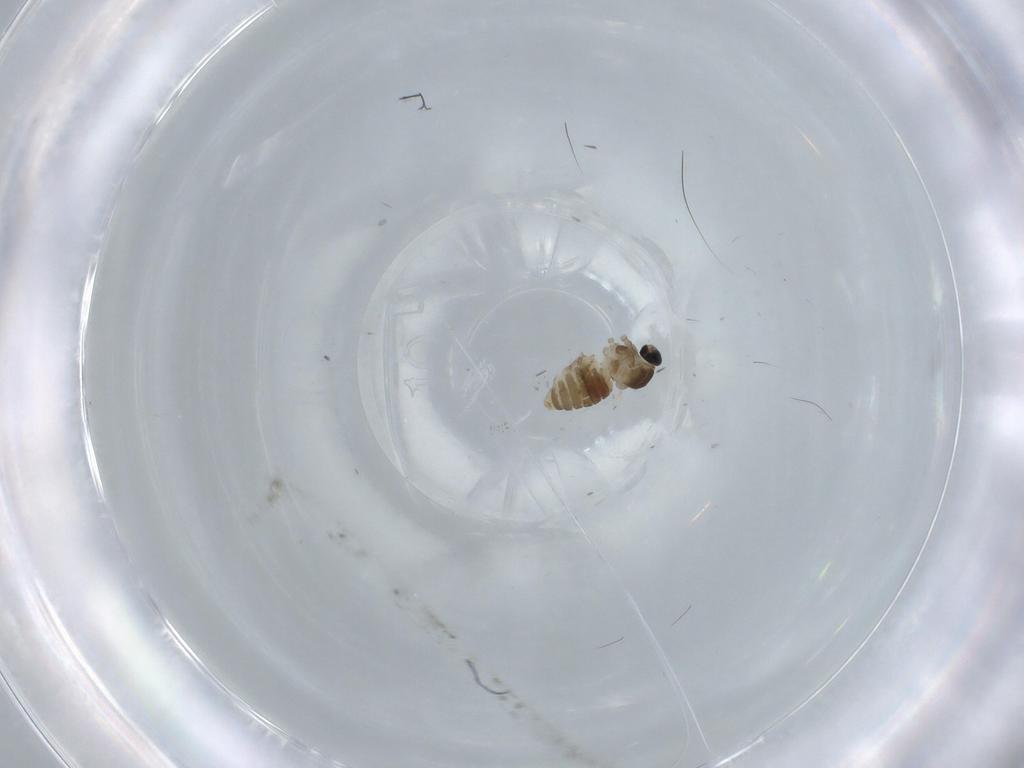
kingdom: Animalia
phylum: Arthropoda
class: Insecta
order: Diptera
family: Cecidomyiidae
